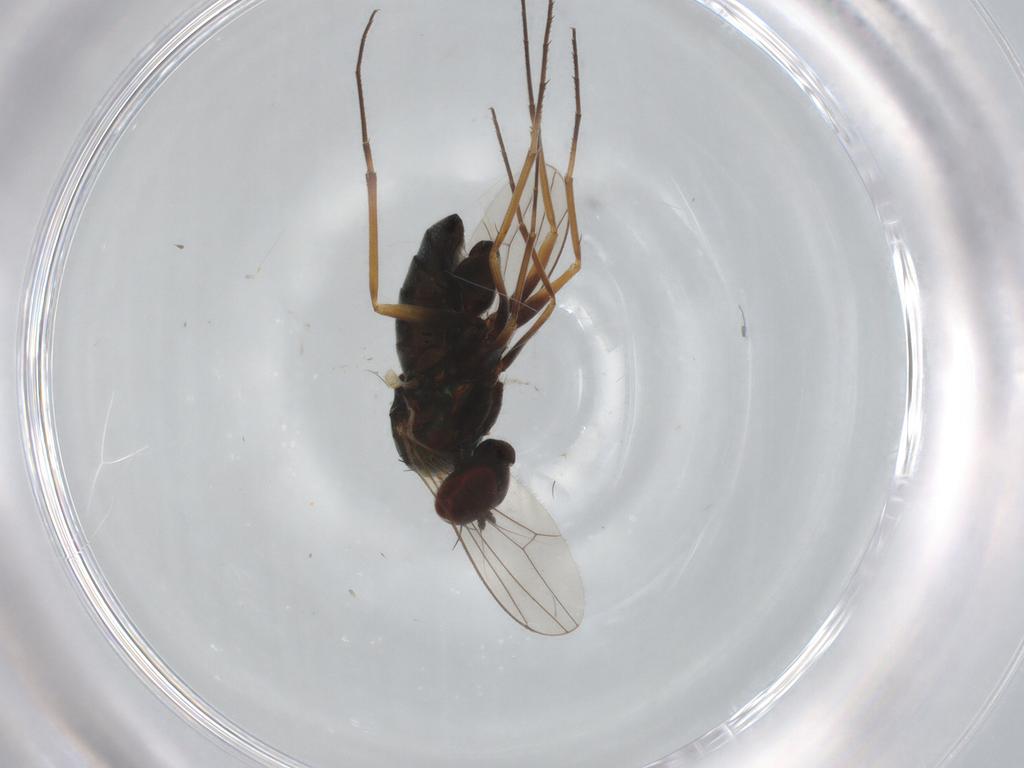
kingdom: Animalia
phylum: Arthropoda
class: Insecta
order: Diptera
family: Dolichopodidae
